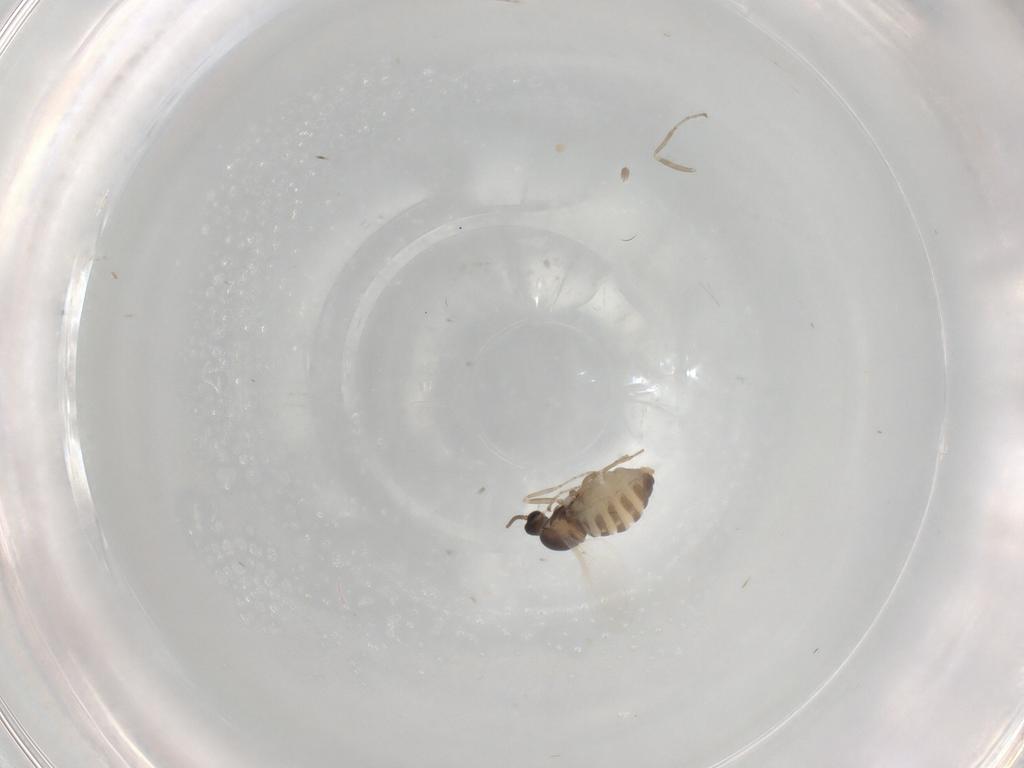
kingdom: Animalia
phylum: Arthropoda
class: Insecta
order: Diptera
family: Cecidomyiidae
